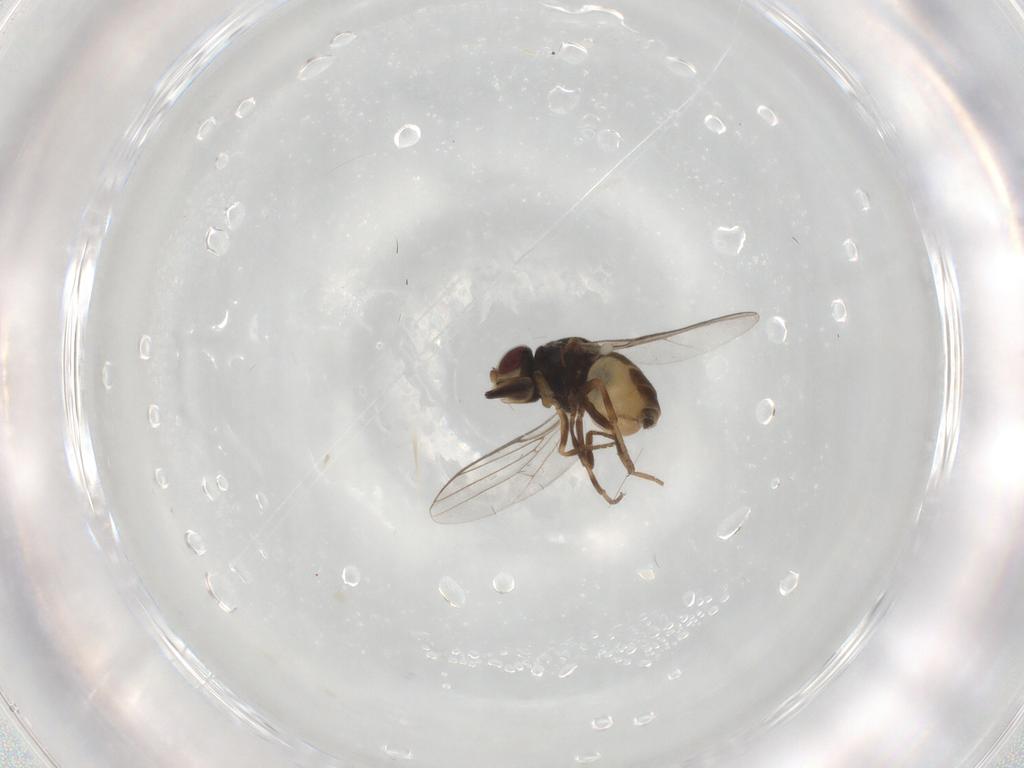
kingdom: Animalia
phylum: Arthropoda
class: Insecta
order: Diptera
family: Chloropidae
